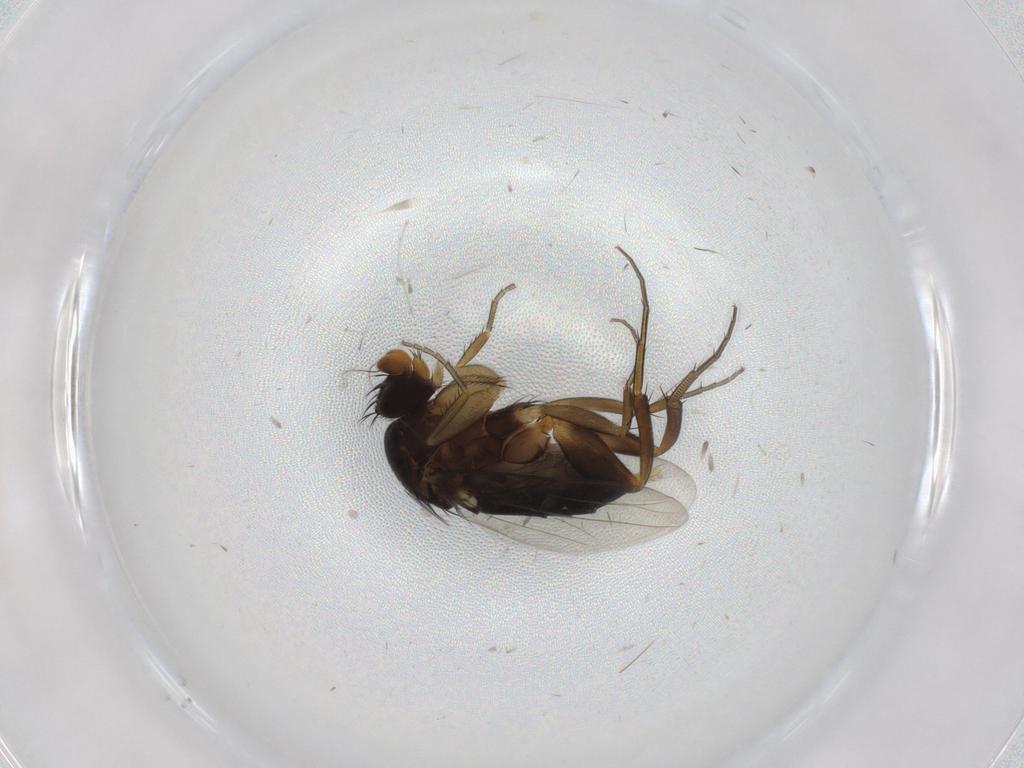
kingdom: Animalia
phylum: Arthropoda
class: Insecta
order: Diptera
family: Phoridae
